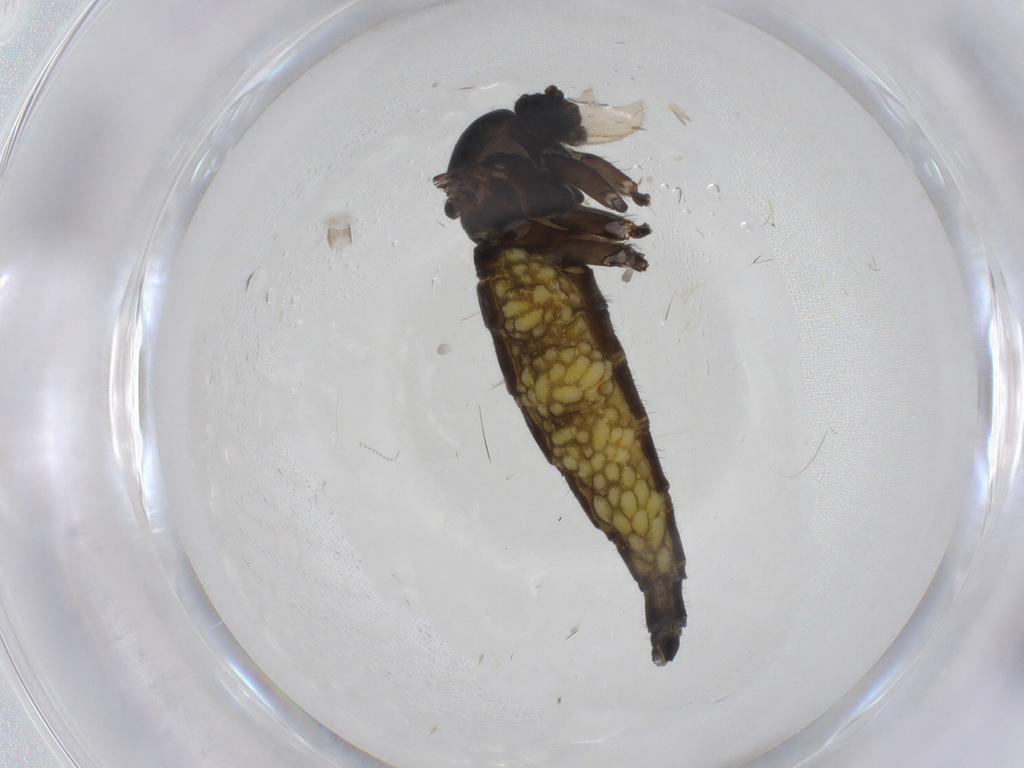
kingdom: Animalia
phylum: Arthropoda
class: Insecta
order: Diptera
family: Sciaridae
